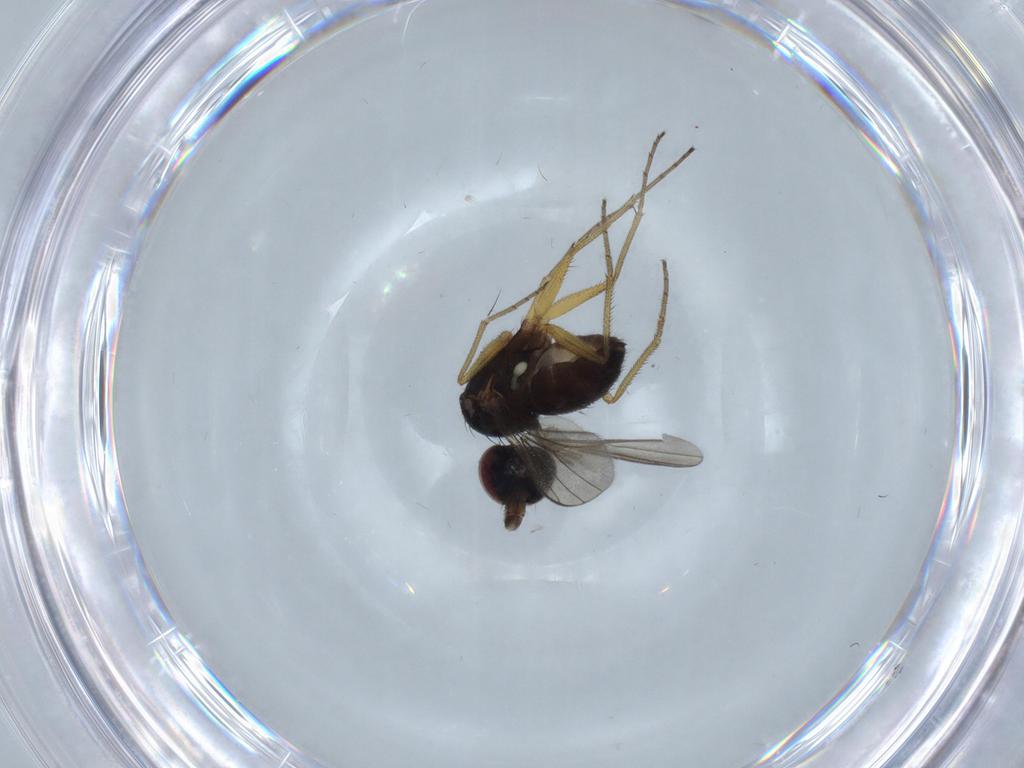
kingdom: Animalia
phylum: Arthropoda
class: Insecta
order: Diptera
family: Dolichopodidae
